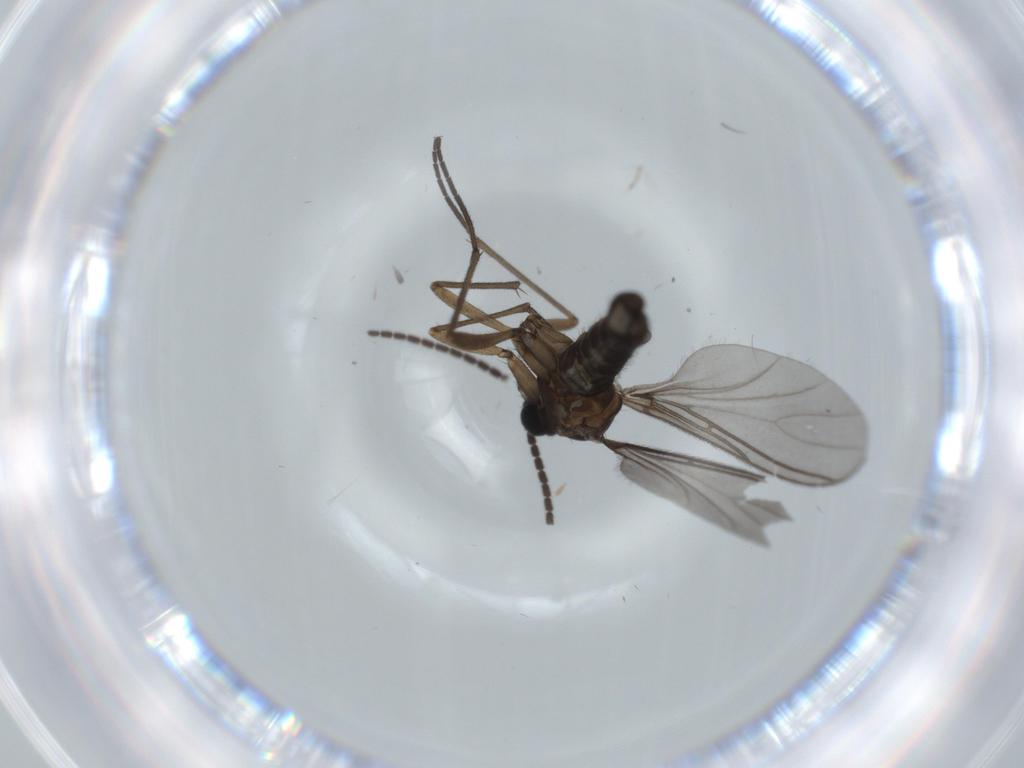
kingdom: Animalia
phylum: Arthropoda
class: Insecta
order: Diptera
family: Sciaridae
